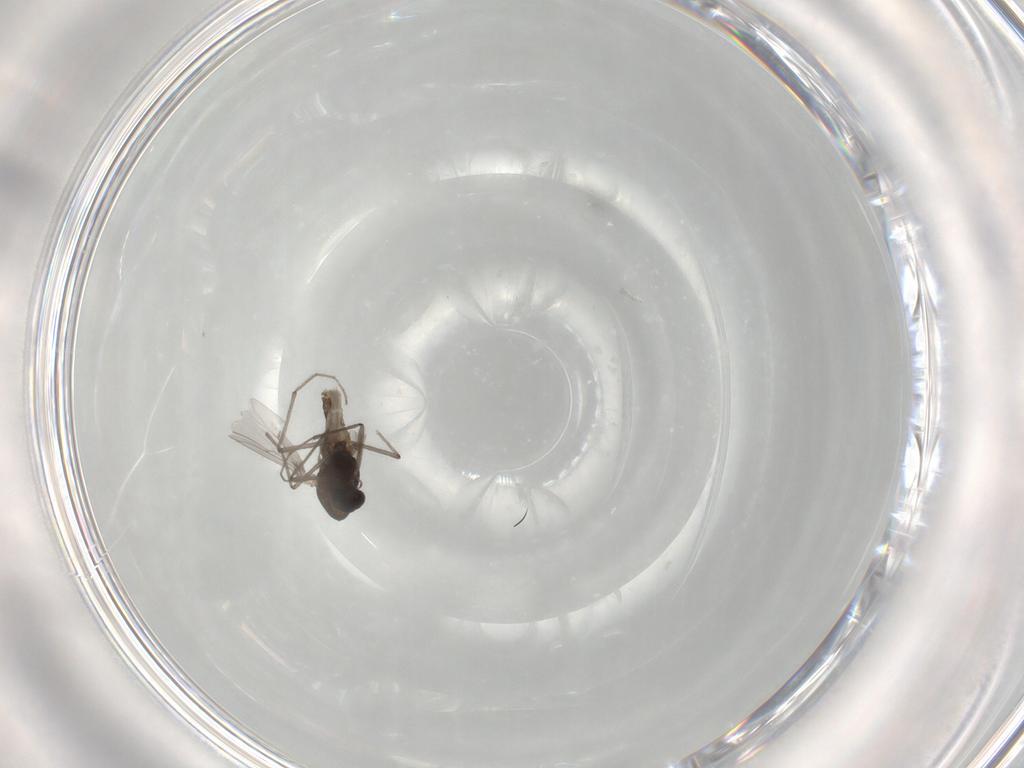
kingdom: Animalia
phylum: Arthropoda
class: Insecta
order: Diptera
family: Chironomidae
